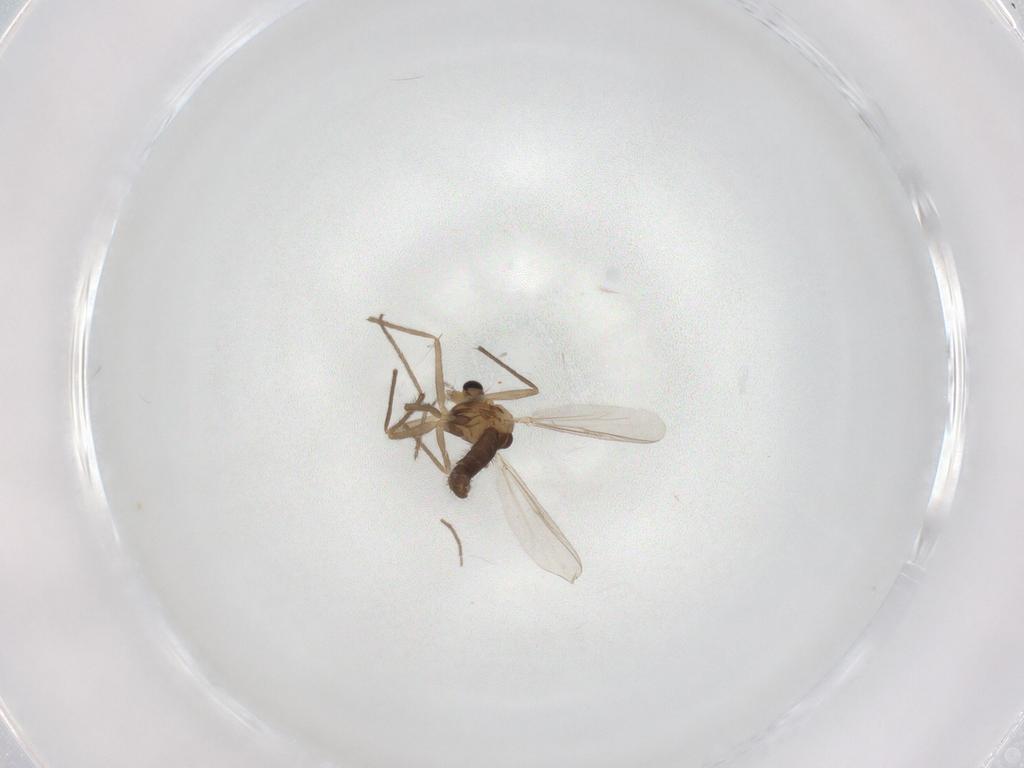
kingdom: Animalia
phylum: Arthropoda
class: Insecta
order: Diptera
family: Chironomidae
